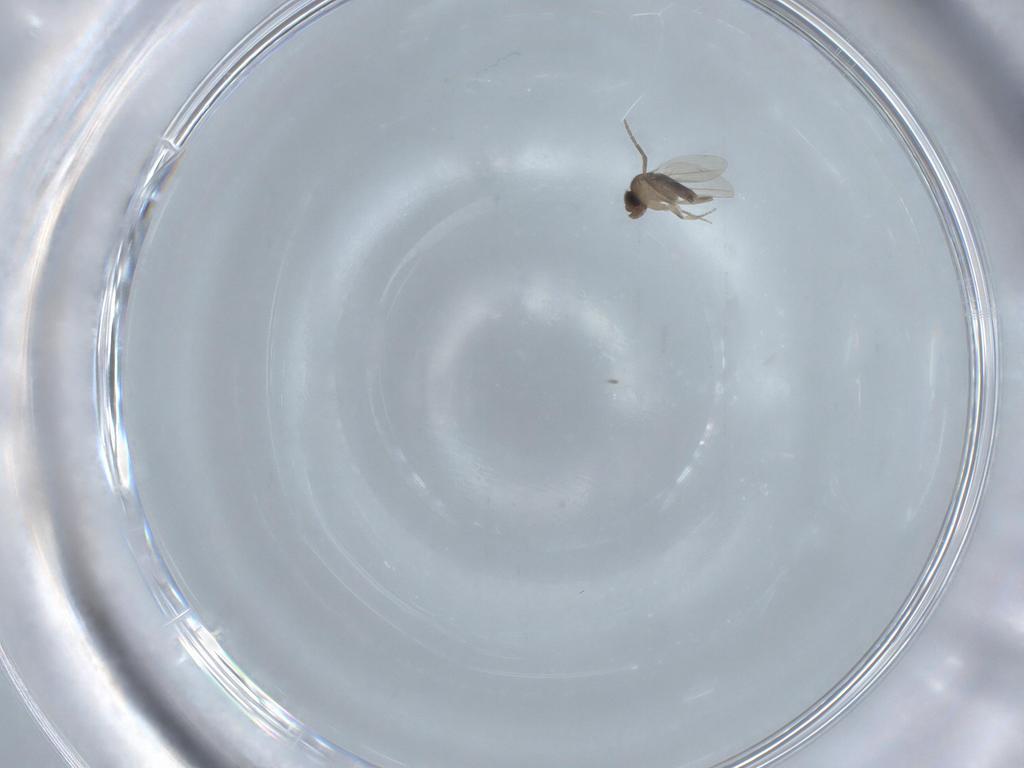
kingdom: Animalia
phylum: Arthropoda
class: Insecta
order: Diptera
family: Phoridae
